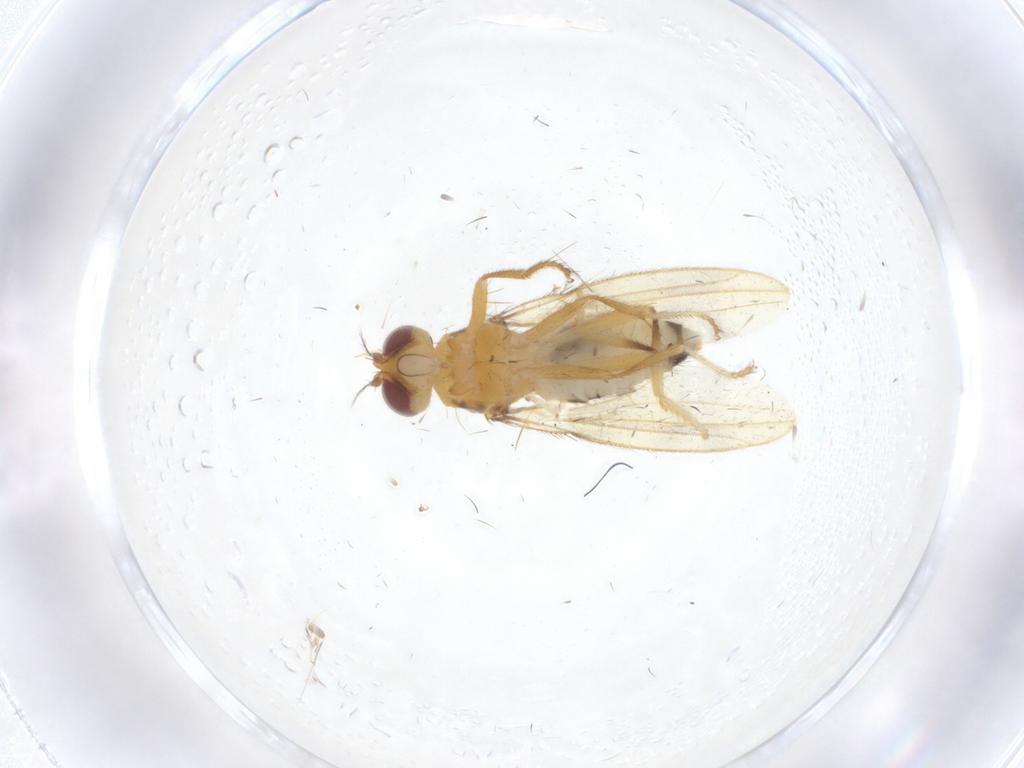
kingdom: Animalia
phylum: Arthropoda
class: Insecta
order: Diptera
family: Periscelididae
